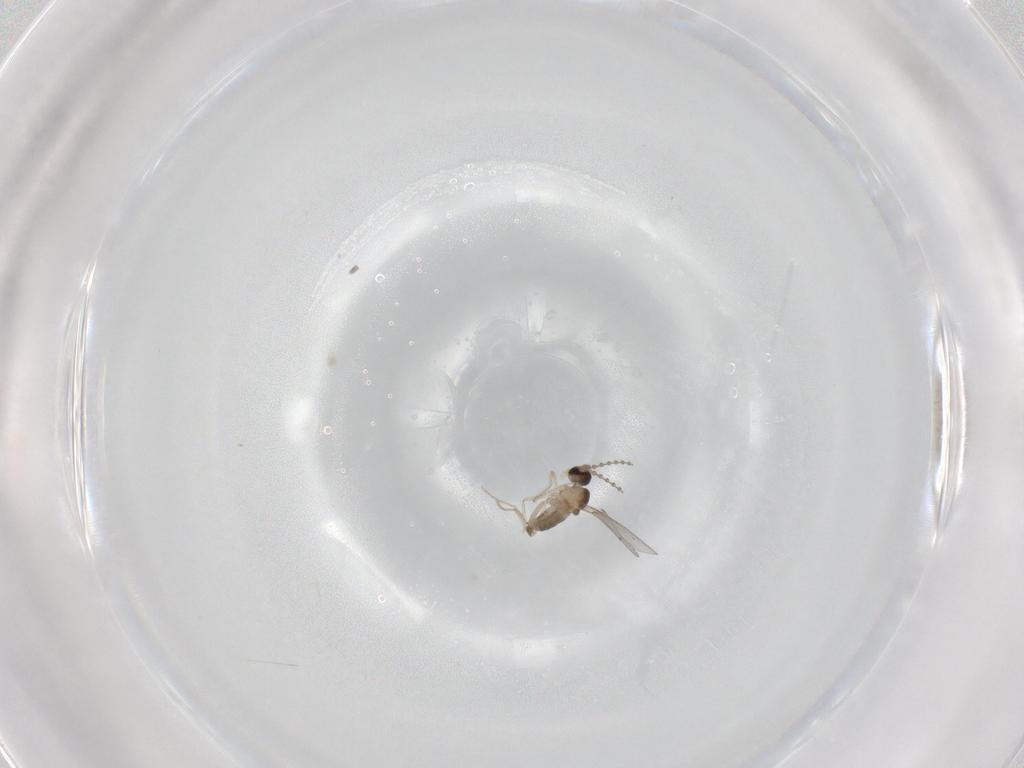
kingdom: Animalia
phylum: Arthropoda
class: Insecta
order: Diptera
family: Cecidomyiidae
